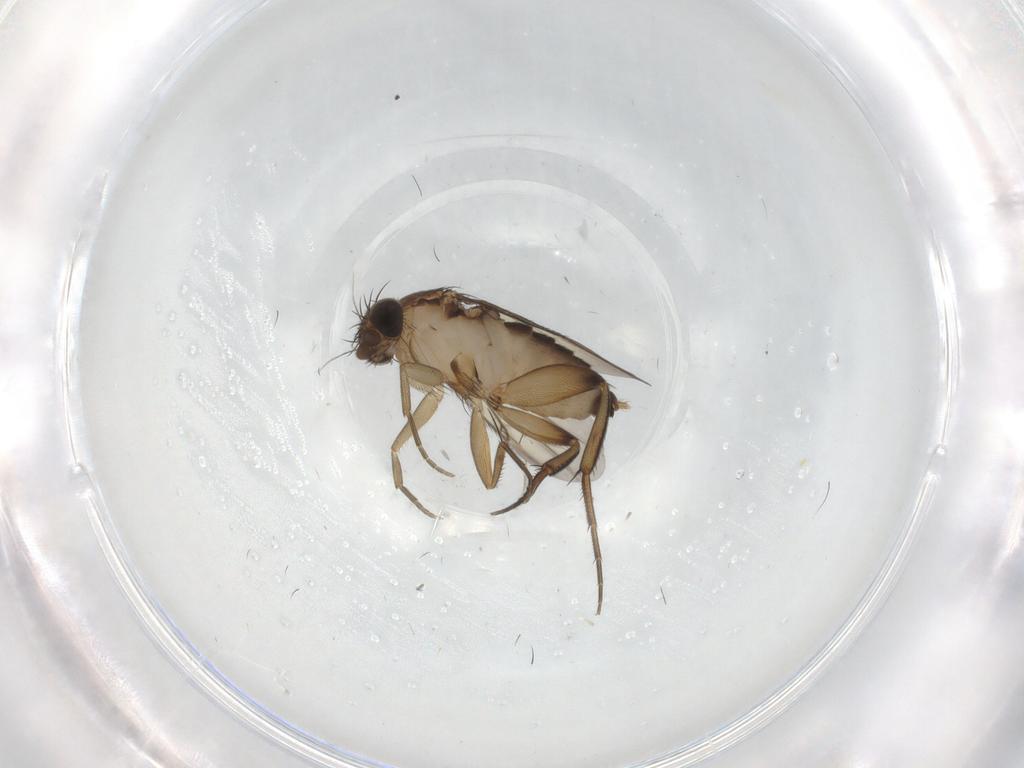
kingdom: Animalia
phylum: Arthropoda
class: Insecta
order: Diptera
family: Phoridae
